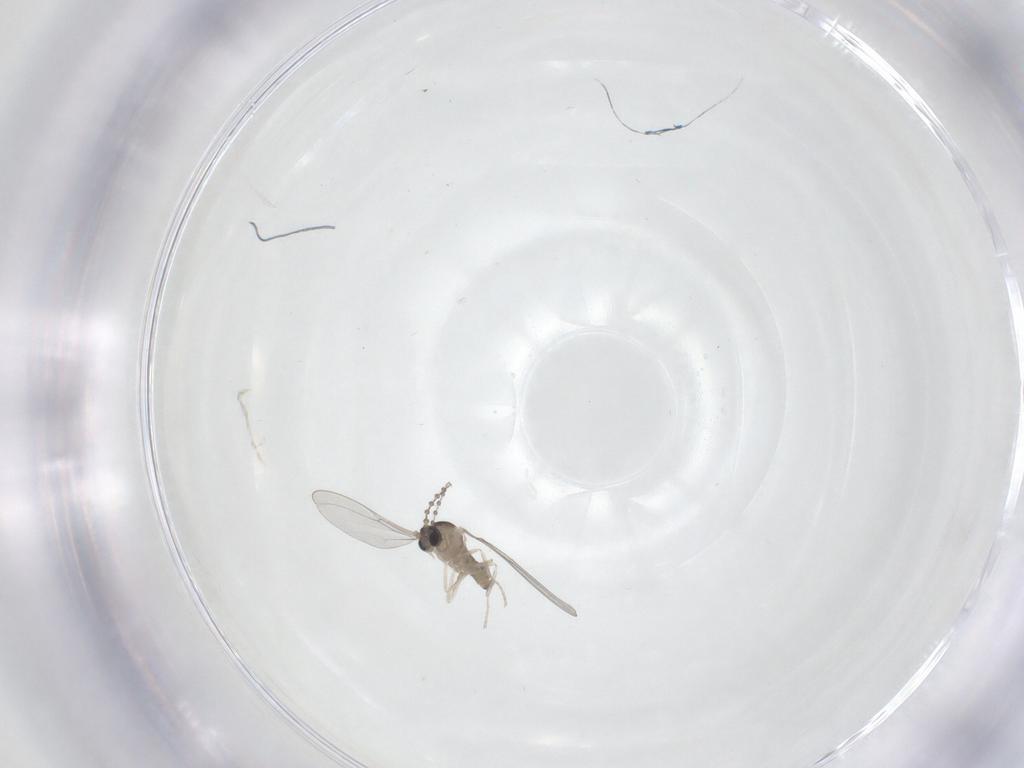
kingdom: Animalia
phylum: Arthropoda
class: Insecta
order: Diptera
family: Cecidomyiidae
